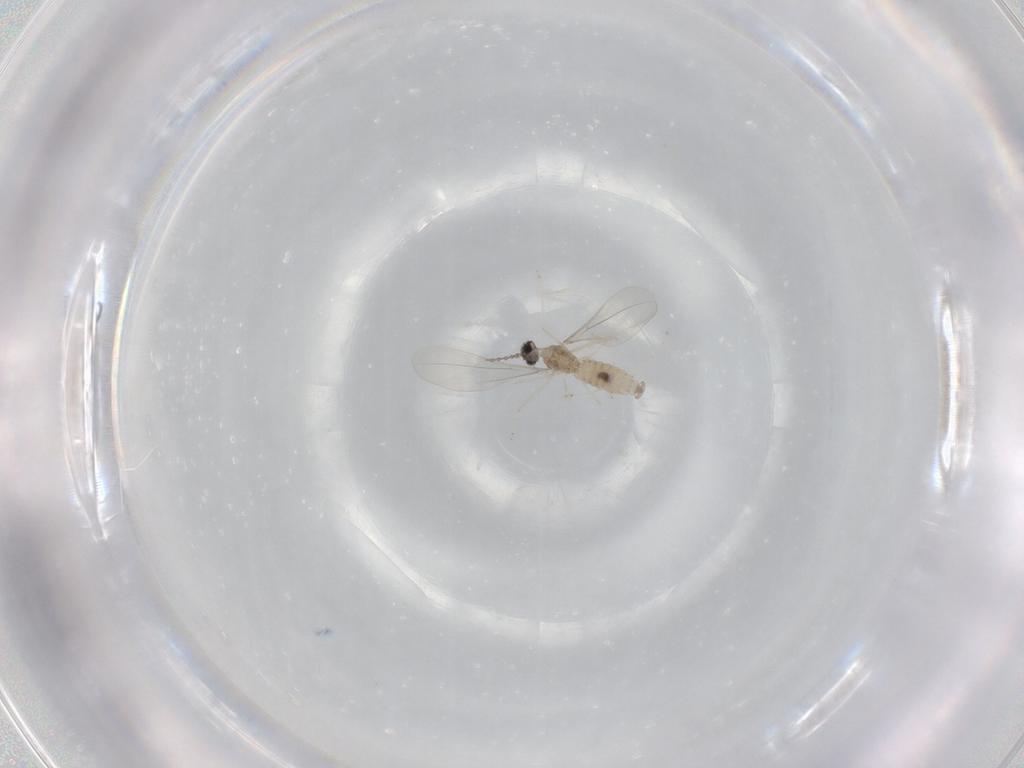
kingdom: Animalia
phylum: Arthropoda
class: Insecta
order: Diptera
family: Cecidomyiidae
